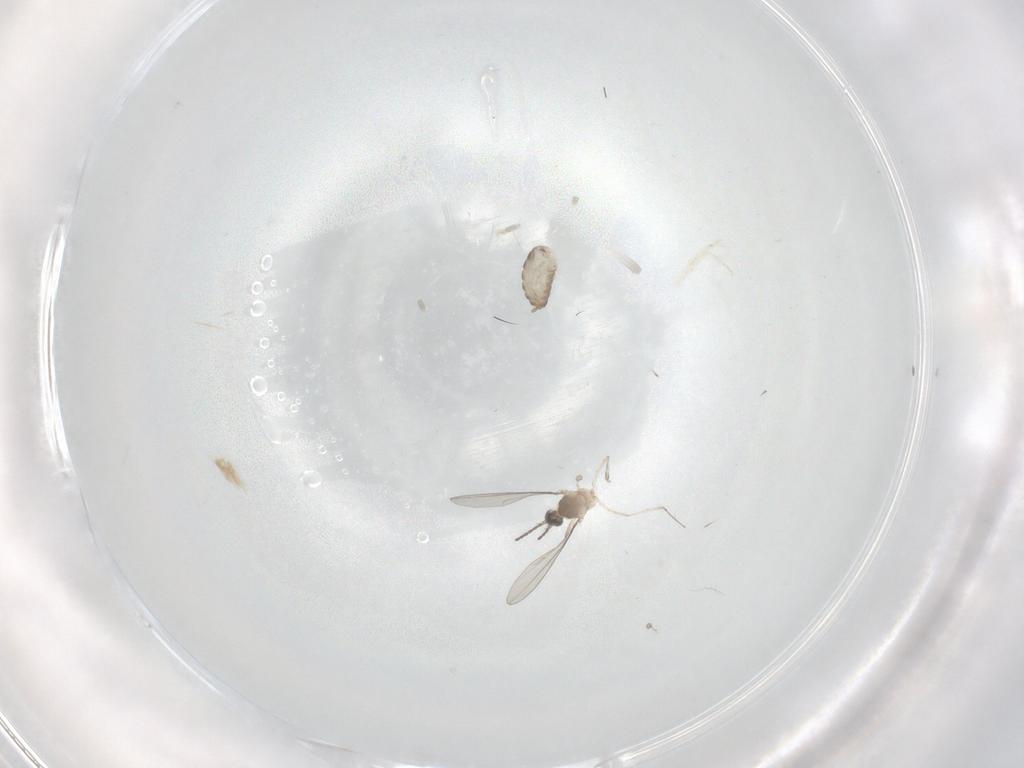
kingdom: Animalia
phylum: Arthropoda
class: Insecta
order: Diptera
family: Cecidomyiidae
